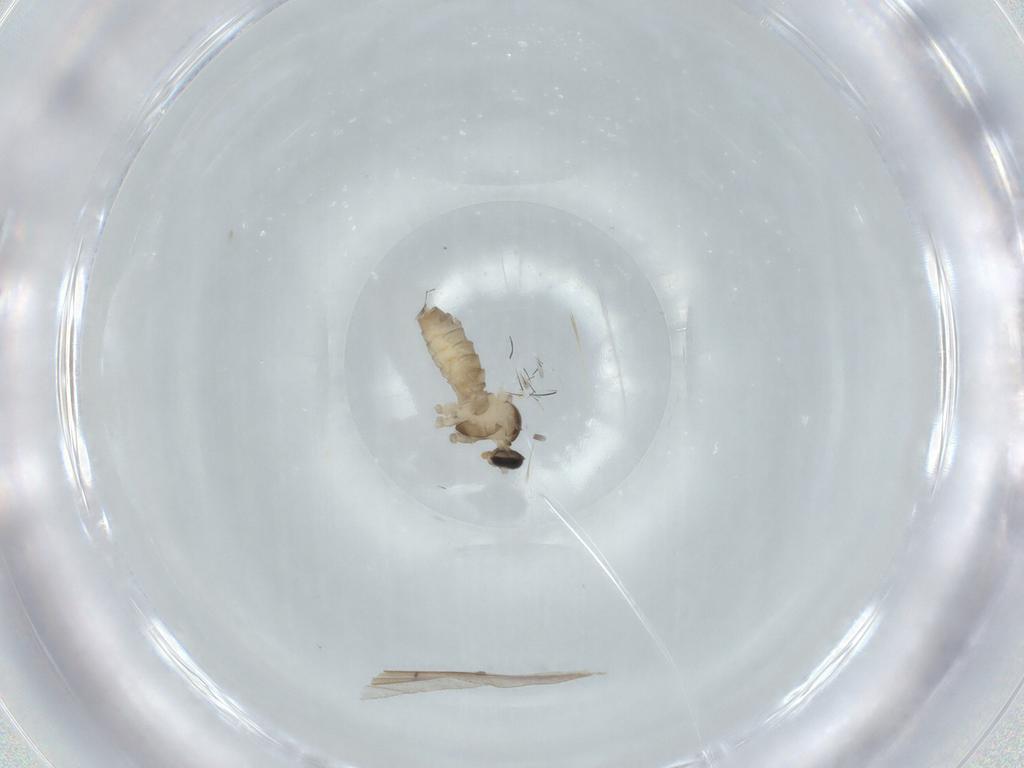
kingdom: Animalia
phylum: Arthropoda
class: Insecta
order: Diptera
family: Cecidomyiidae
